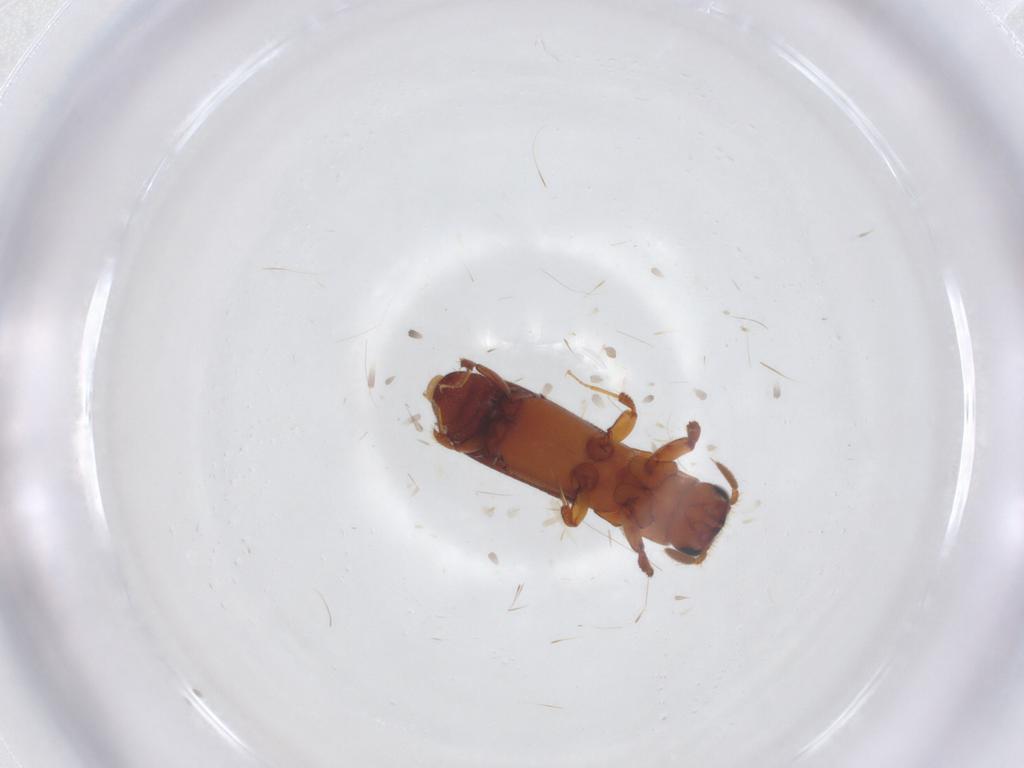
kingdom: Animalia
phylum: Arthropoda
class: Insecta
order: Coleoptera
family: Curculionidae
